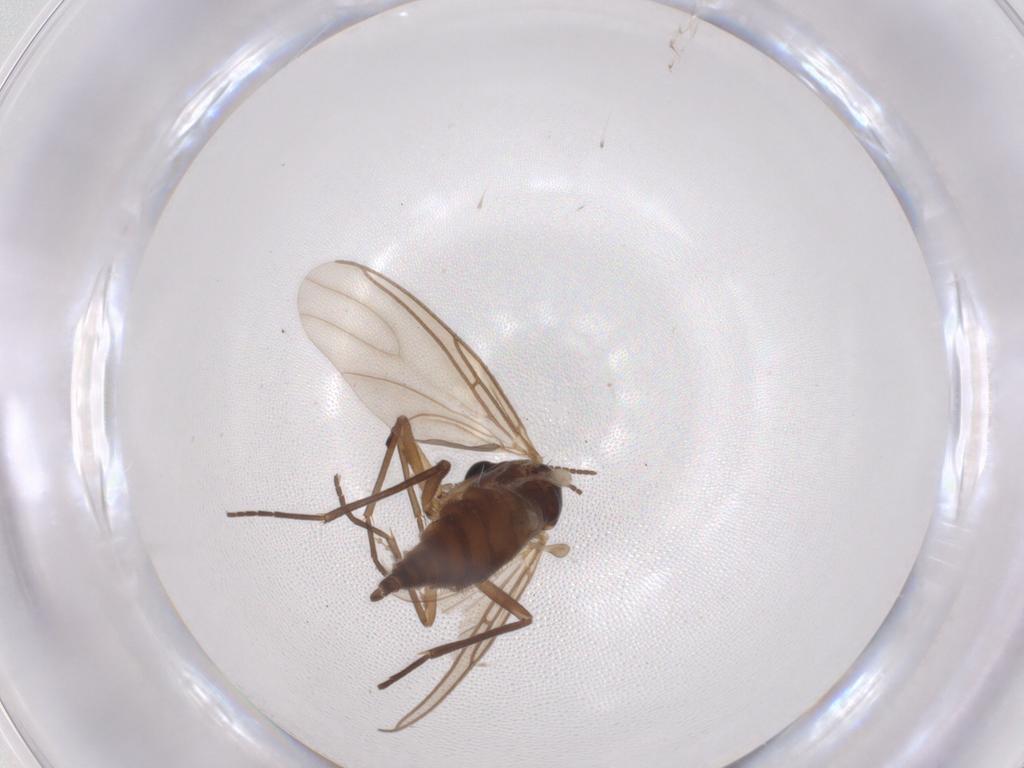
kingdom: Animalia
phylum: Arthropoda
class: Insecta
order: Diptera
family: Sciaridae
